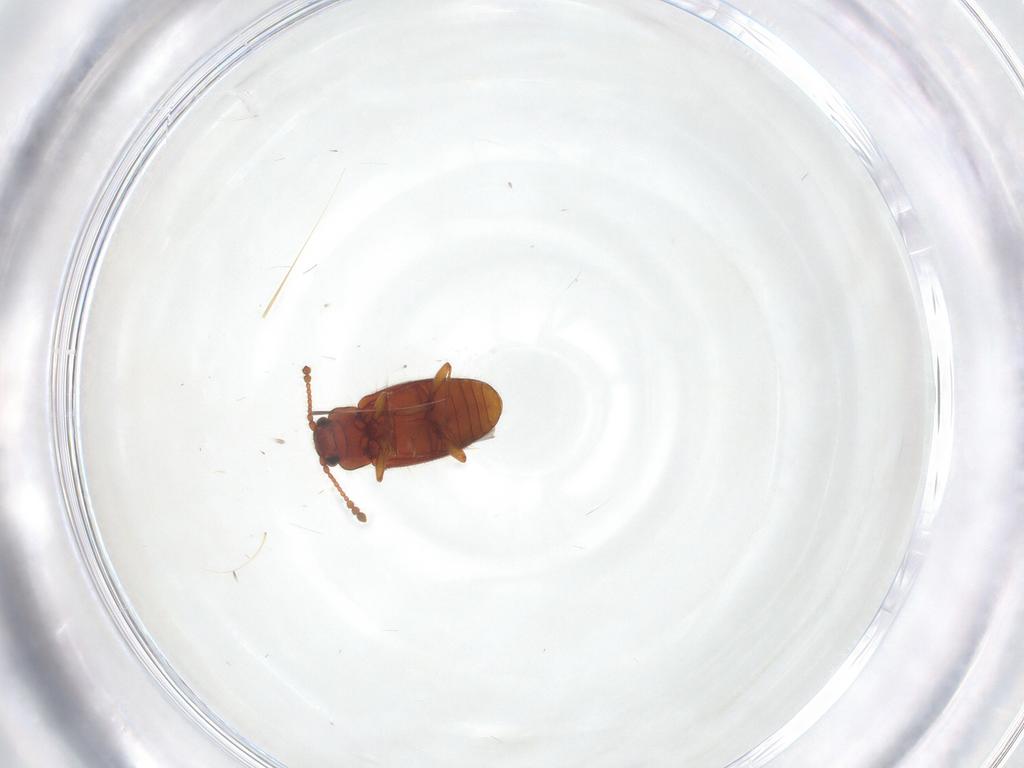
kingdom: Animalia
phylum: Arthropoda
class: Insecta
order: Coleoptera
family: Cryptophagidae
